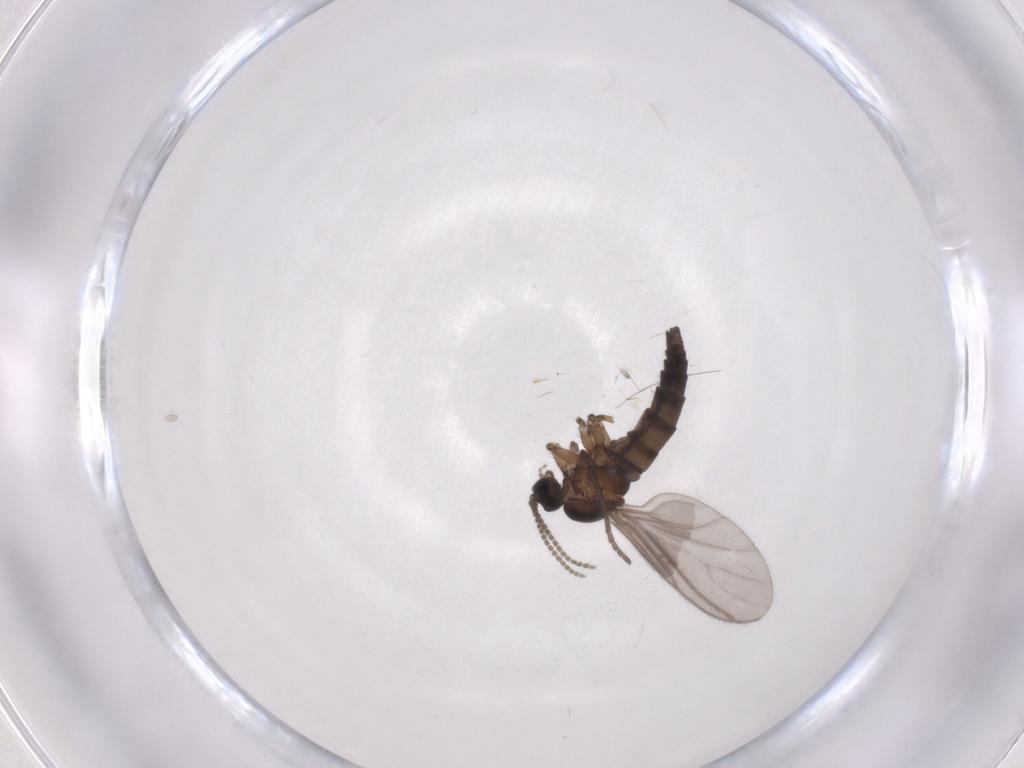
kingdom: Animalia
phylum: Arthropoda
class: Insecta
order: Diptera
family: Sciaridae
